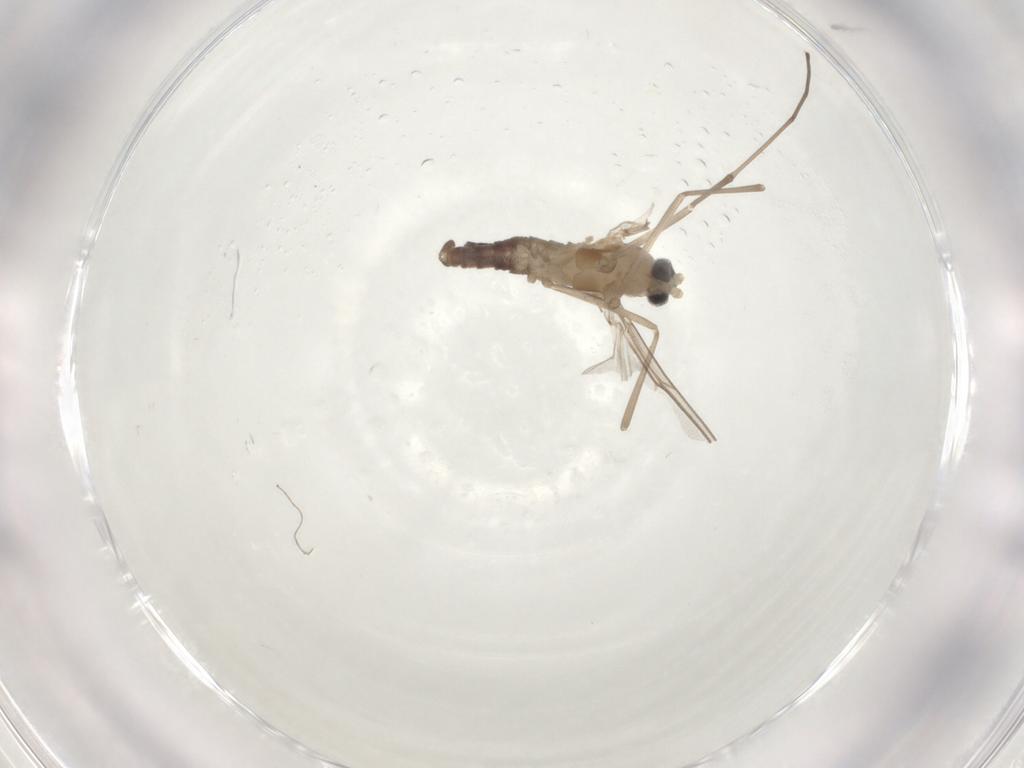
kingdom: Animalia
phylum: Arthropoda
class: Insecta
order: Diptera
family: Cecidomyiidae
